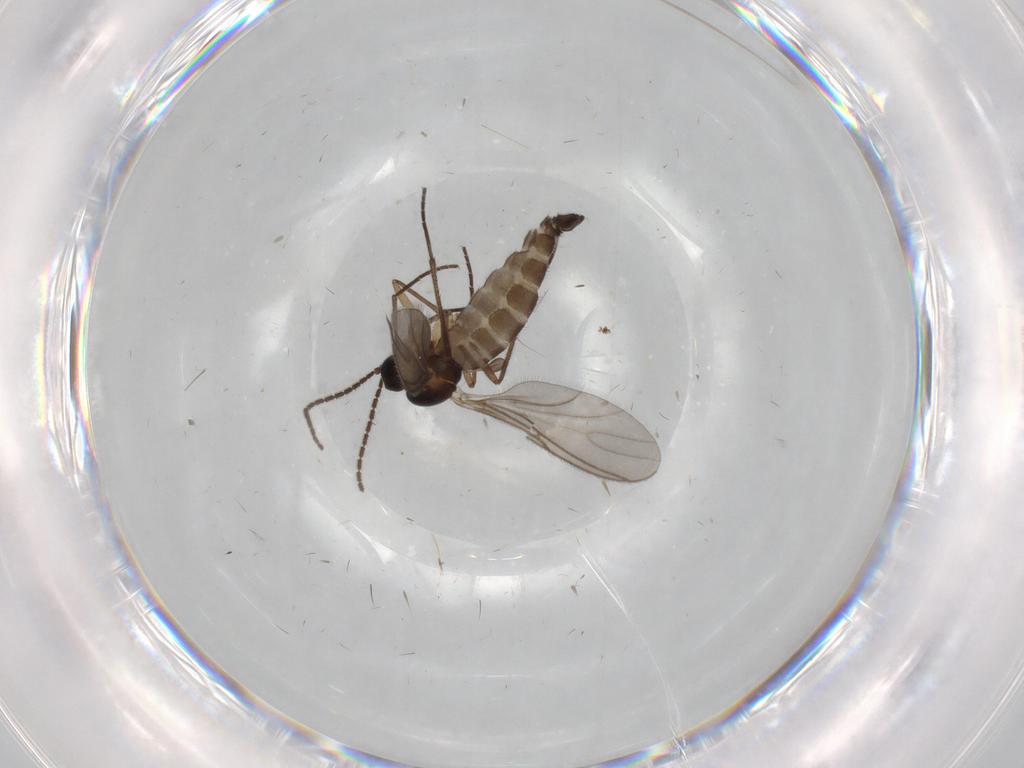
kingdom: Animalia
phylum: Arthropoda
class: Insecta
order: Diptera
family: Sciaridae
